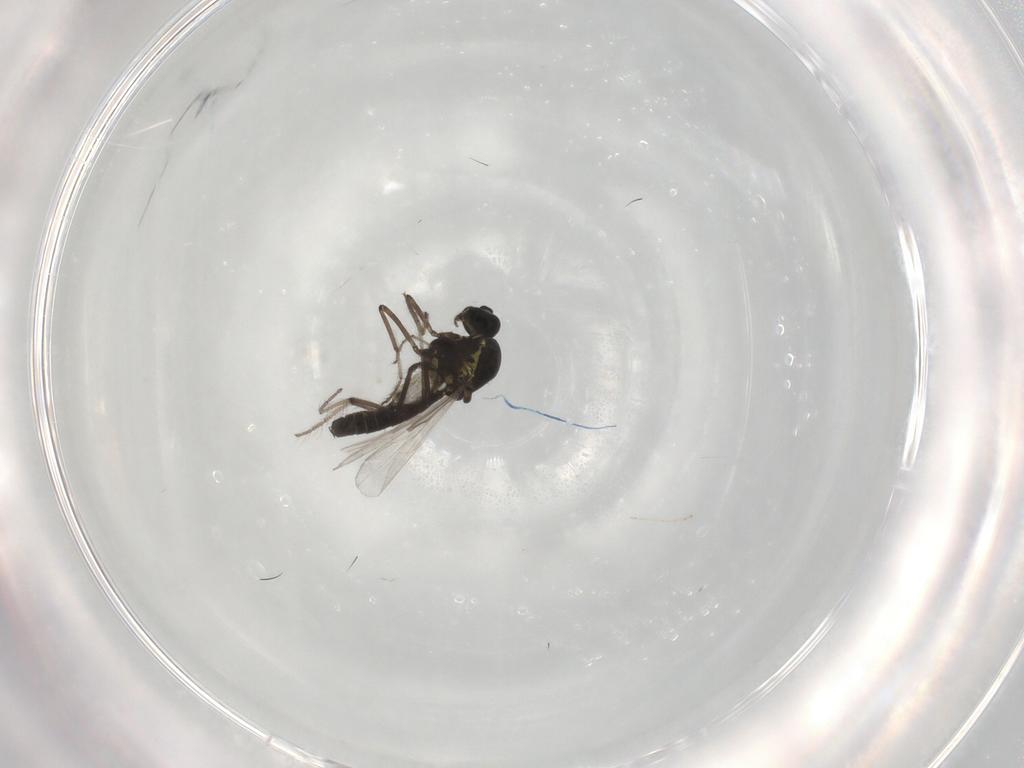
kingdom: Animalia
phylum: Arthropoda
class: Insecta
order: Diptera
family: Ceratopogonidae
